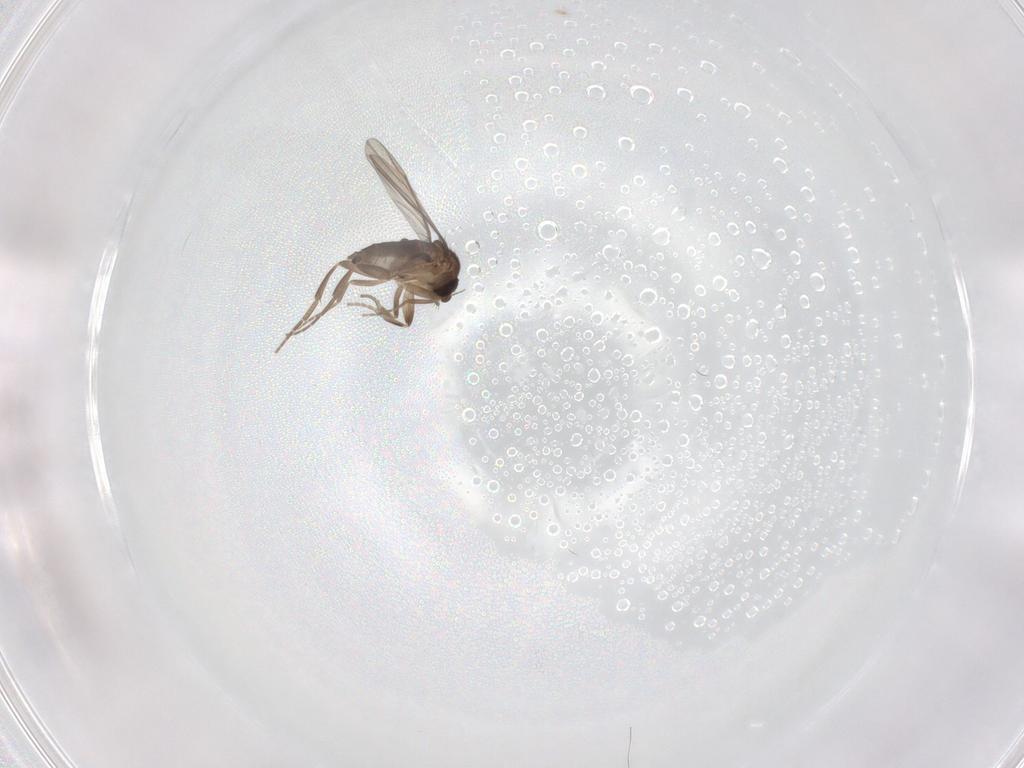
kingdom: Animalia
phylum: Arthropoda
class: Insecta
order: Diptera
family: Phoridae
